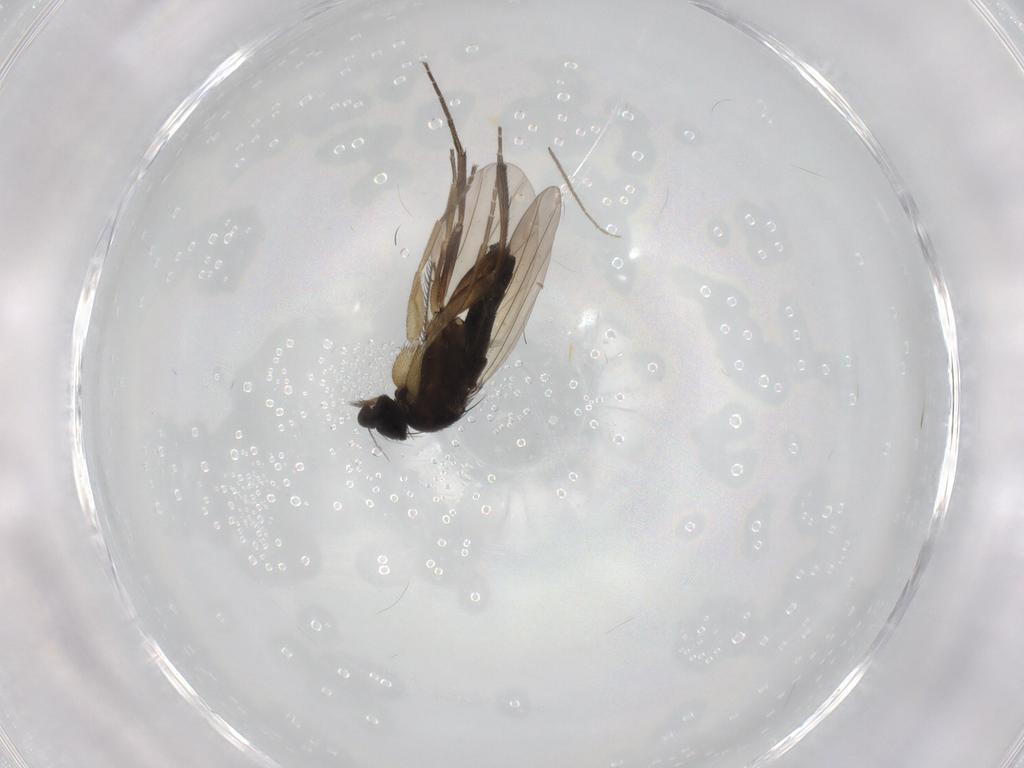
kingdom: Animalia
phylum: Arthropoda
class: Insecta
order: Diptera
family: Phoridae
